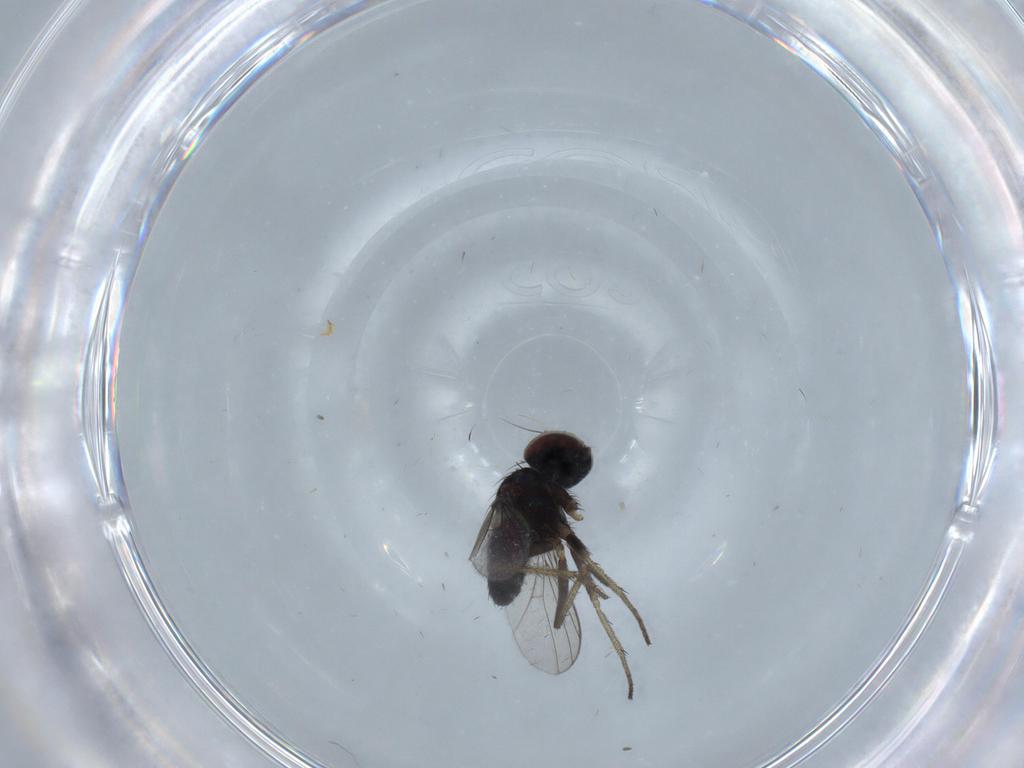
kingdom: Animalia
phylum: Arthropoda
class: Insecta
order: Diptera
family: Dolichopodidae
